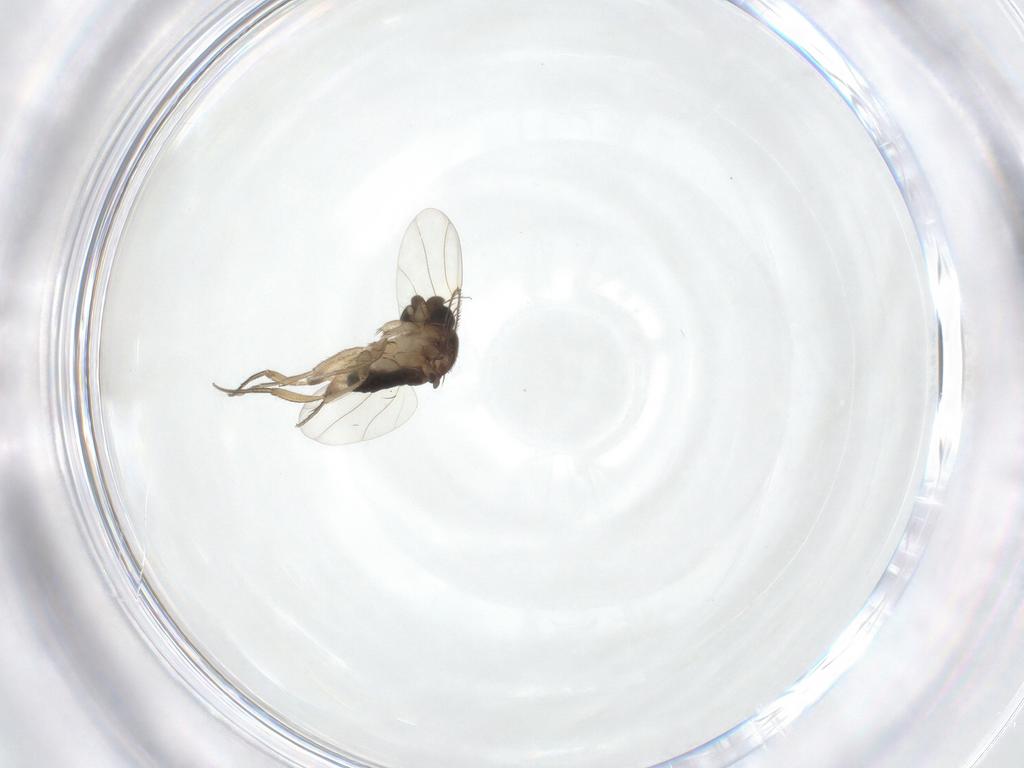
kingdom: Animalia
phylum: Arthropoda
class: Insecta
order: Diptera
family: Phoridae
